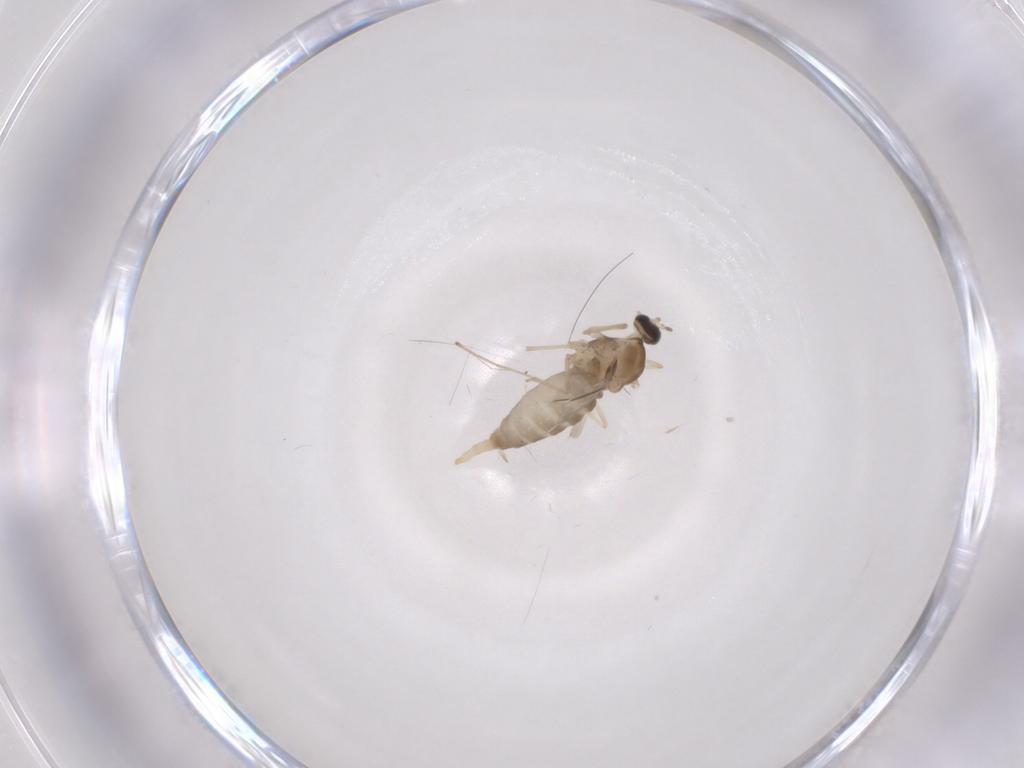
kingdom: Animalia
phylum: Arthropoda
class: Insecta
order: Diptera
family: Cecidomyiidae
